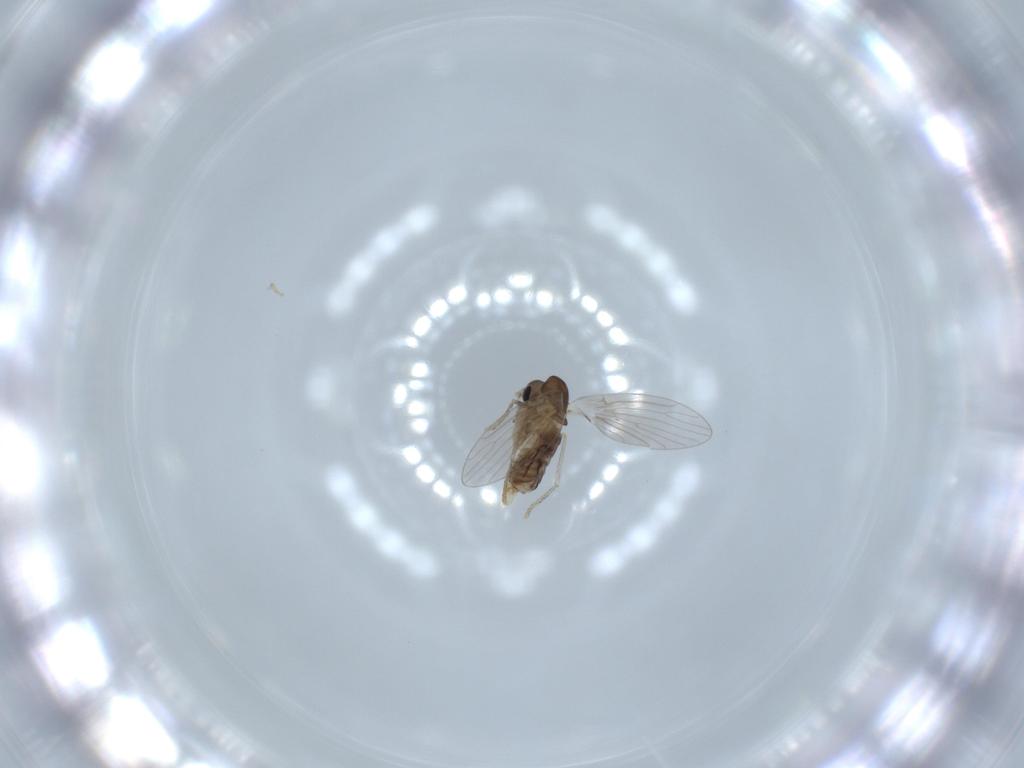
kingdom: Animalia
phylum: Arthropoda
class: Insecta
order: Diptera
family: Psychodidae
